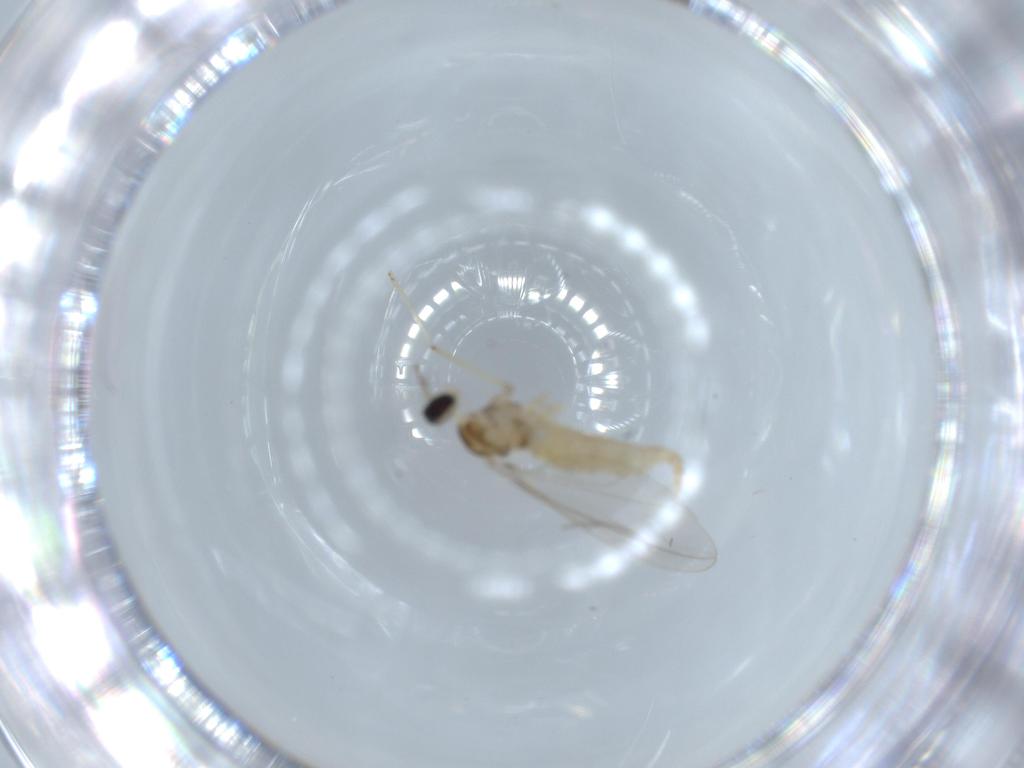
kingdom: Animalia
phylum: Arthropoda
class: Insecta
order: Diptera
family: Cecidomyiidae
